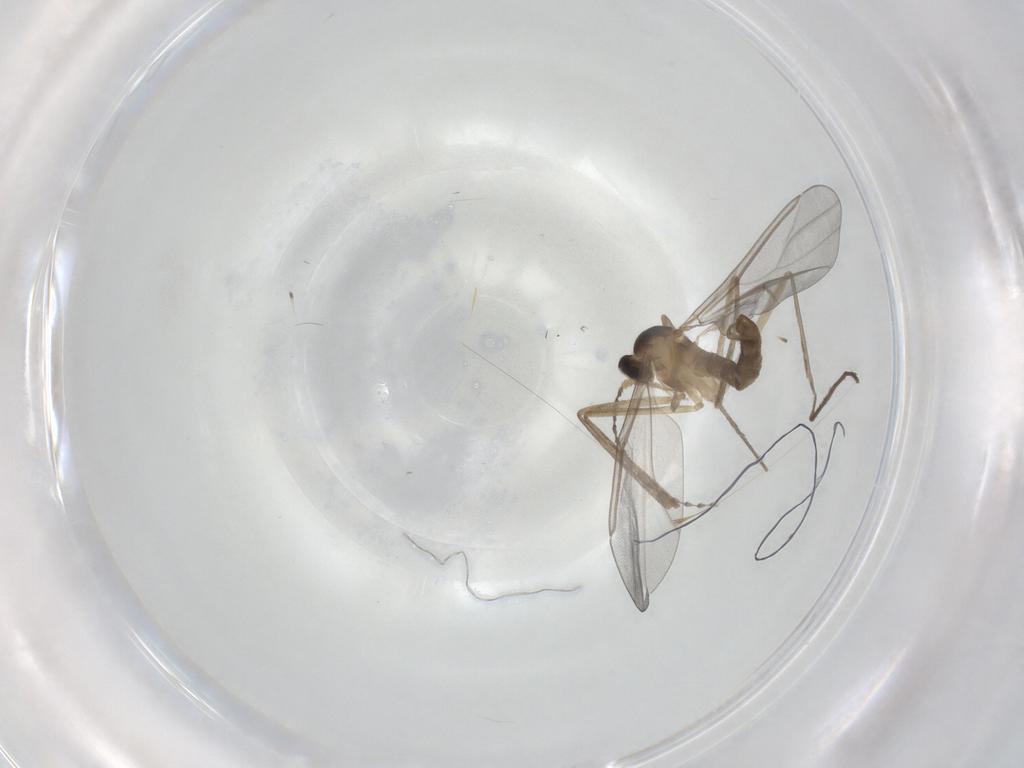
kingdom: Animalia
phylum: Arthropoda
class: Insecta
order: Diptera
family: Cecidomyiidae
